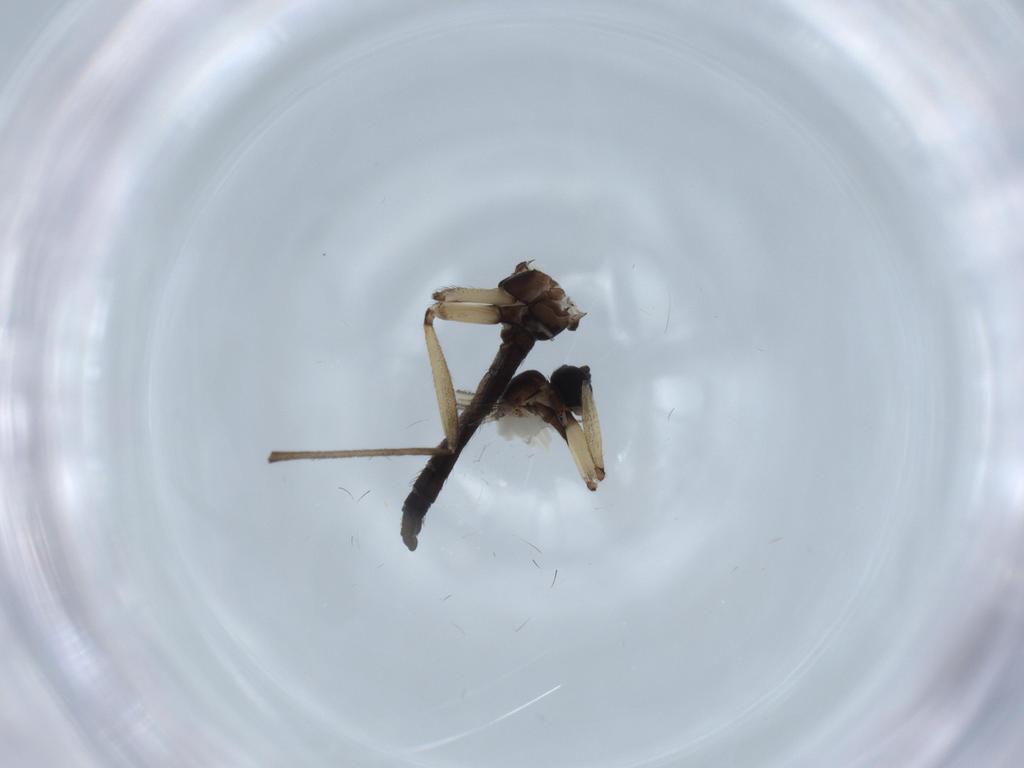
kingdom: Animalia
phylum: Arthropoda
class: Insecta
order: Diptera
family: Sciaridae
